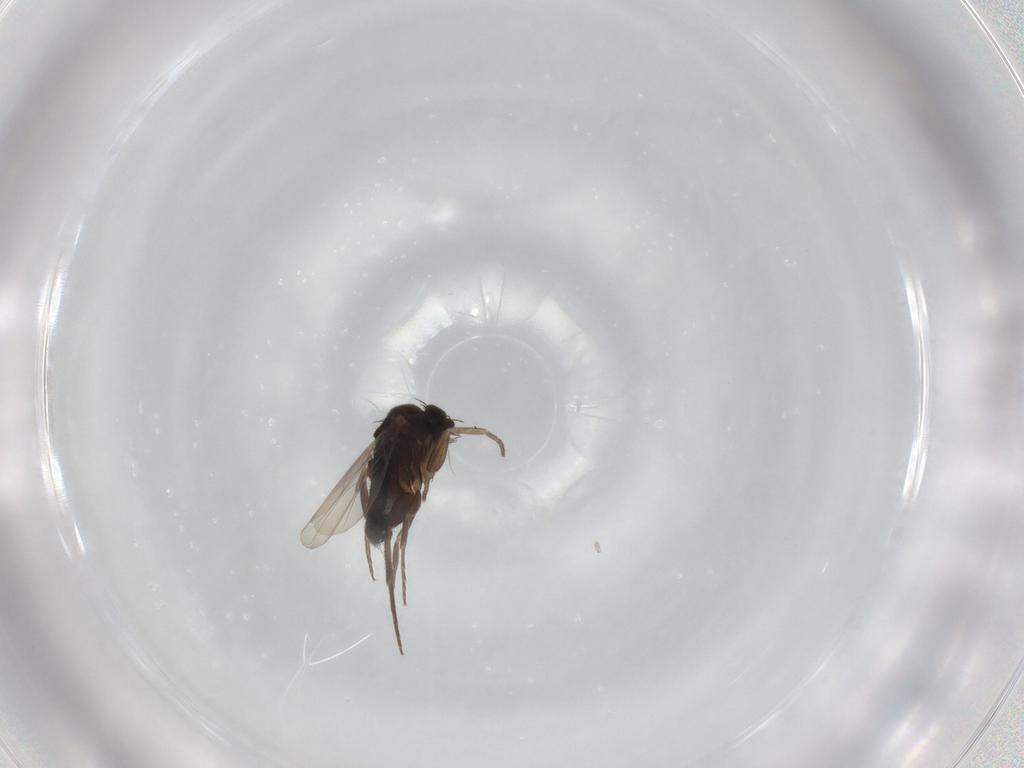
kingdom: Animalia
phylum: Arthropoda
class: Insecta
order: Diptera
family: Phoridae
